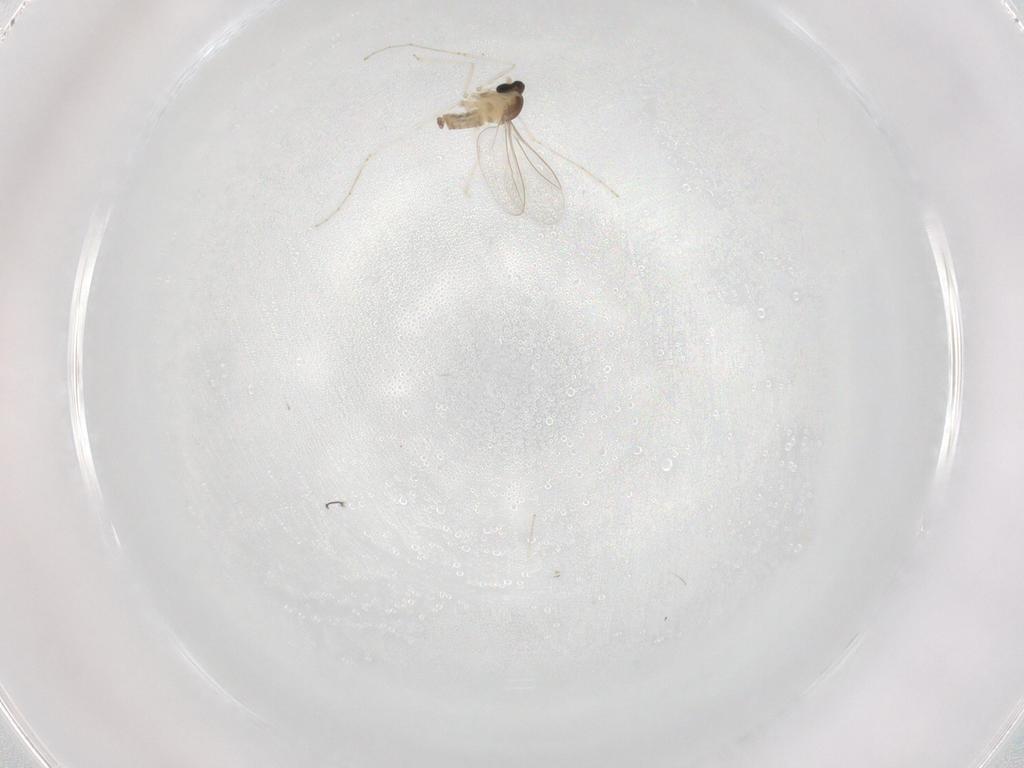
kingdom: Animalia
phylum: Arthropoda
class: Insecta
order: Diptera
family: Cecidomyiidae
